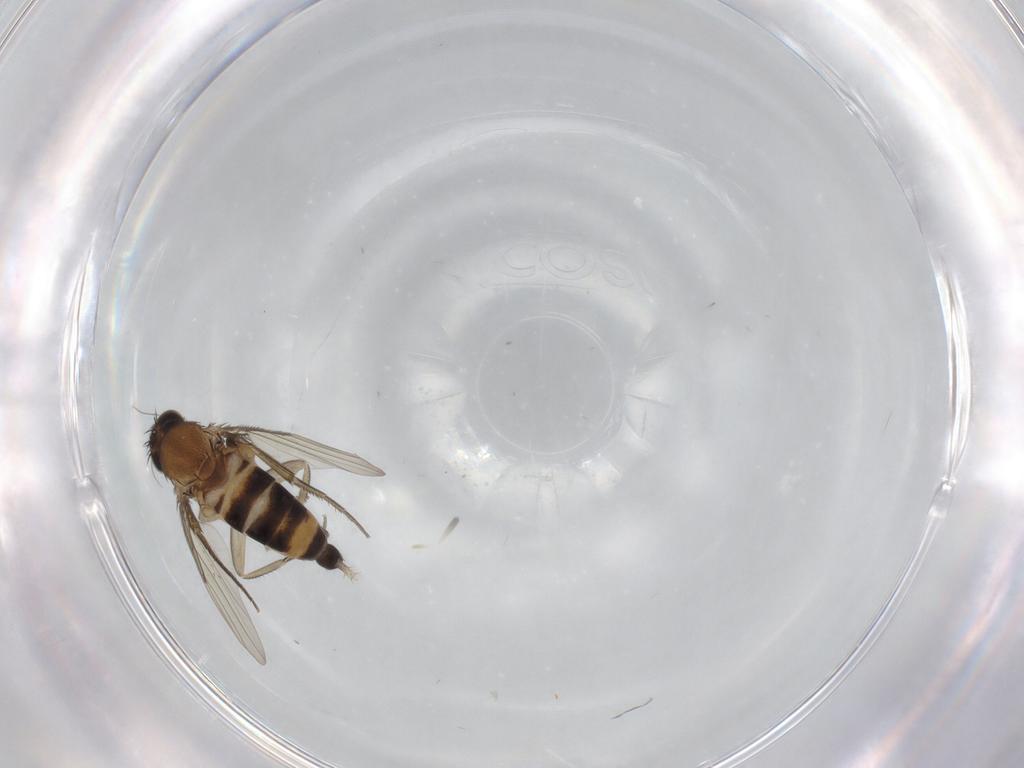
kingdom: Animalia
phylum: Arthropoda
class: Insecta
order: Diptera
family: Phoridae
